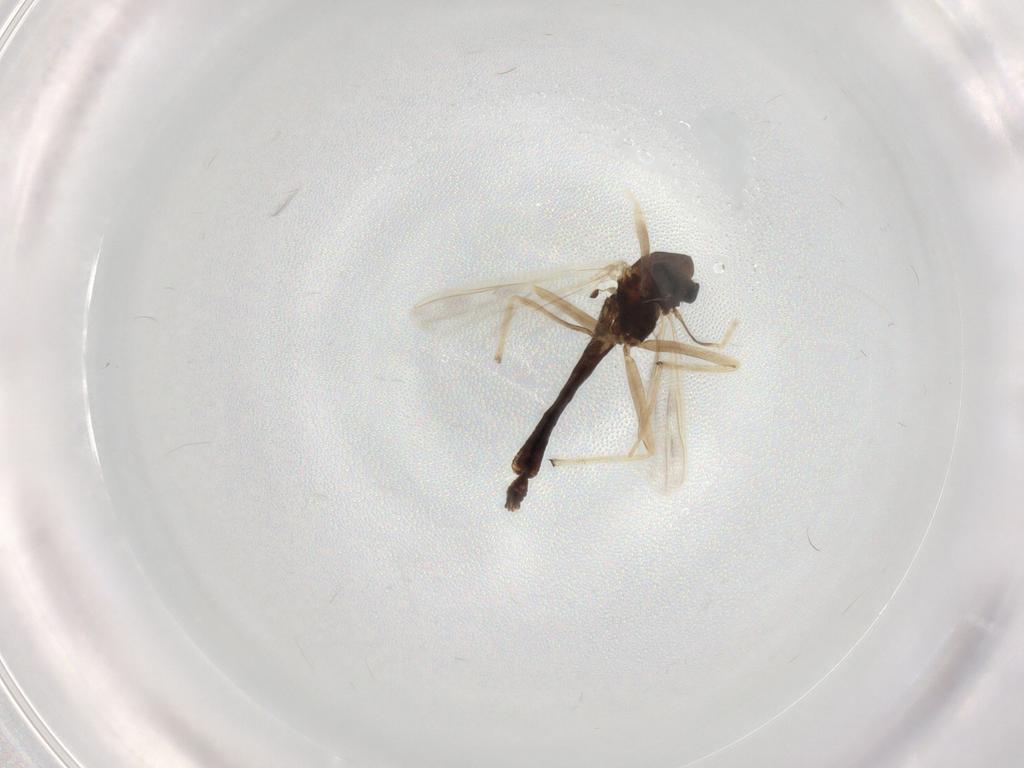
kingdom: Animalia
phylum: Arthropoda
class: Insecta
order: Diptera
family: Chironomidae
